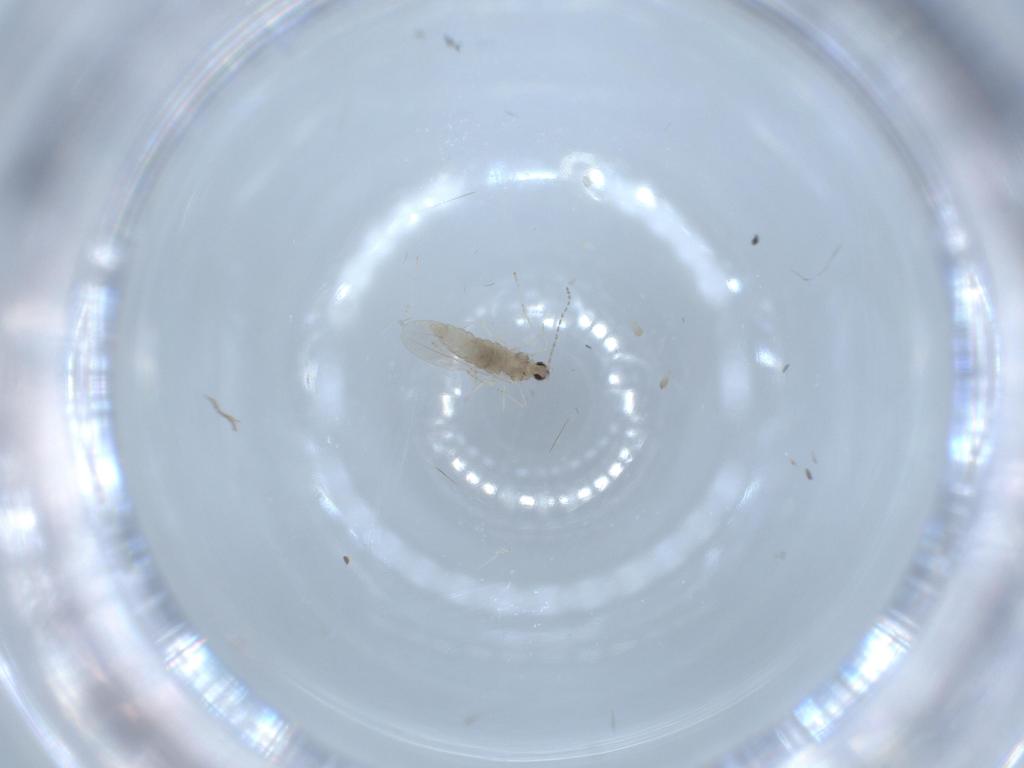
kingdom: Animalia
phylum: Arthropoda
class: Insecta
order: Diptera
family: Cecidomyiidae
